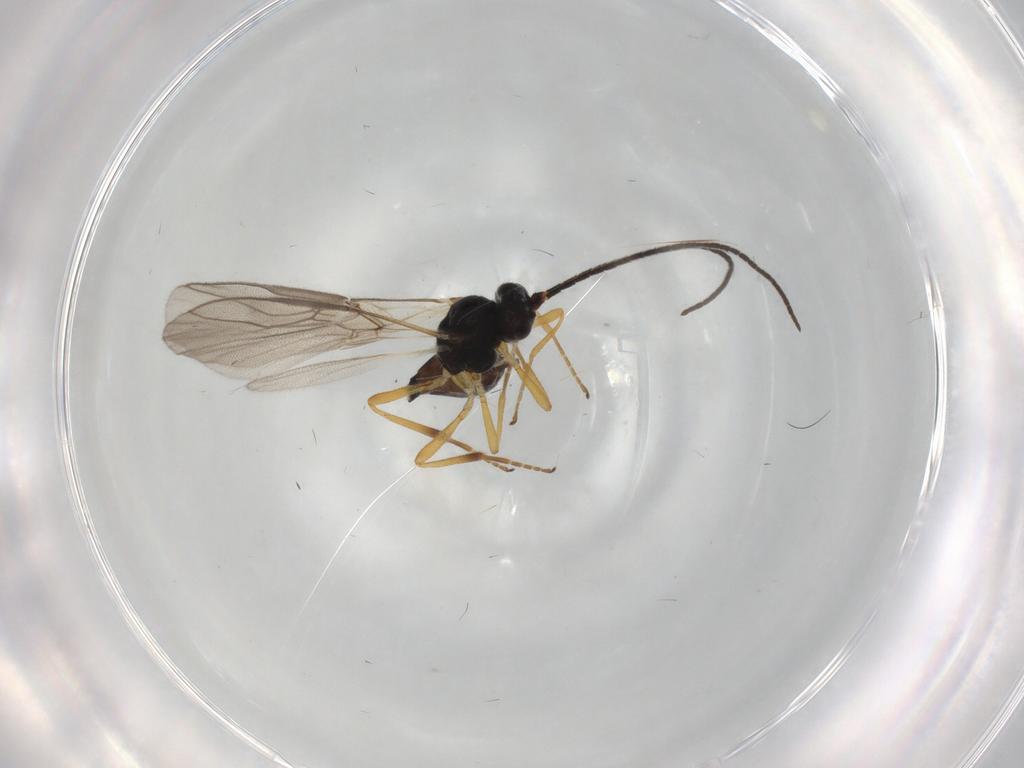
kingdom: Animalia
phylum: Arthropoda
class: Insecta
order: Hymenoptera
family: Braconidae
